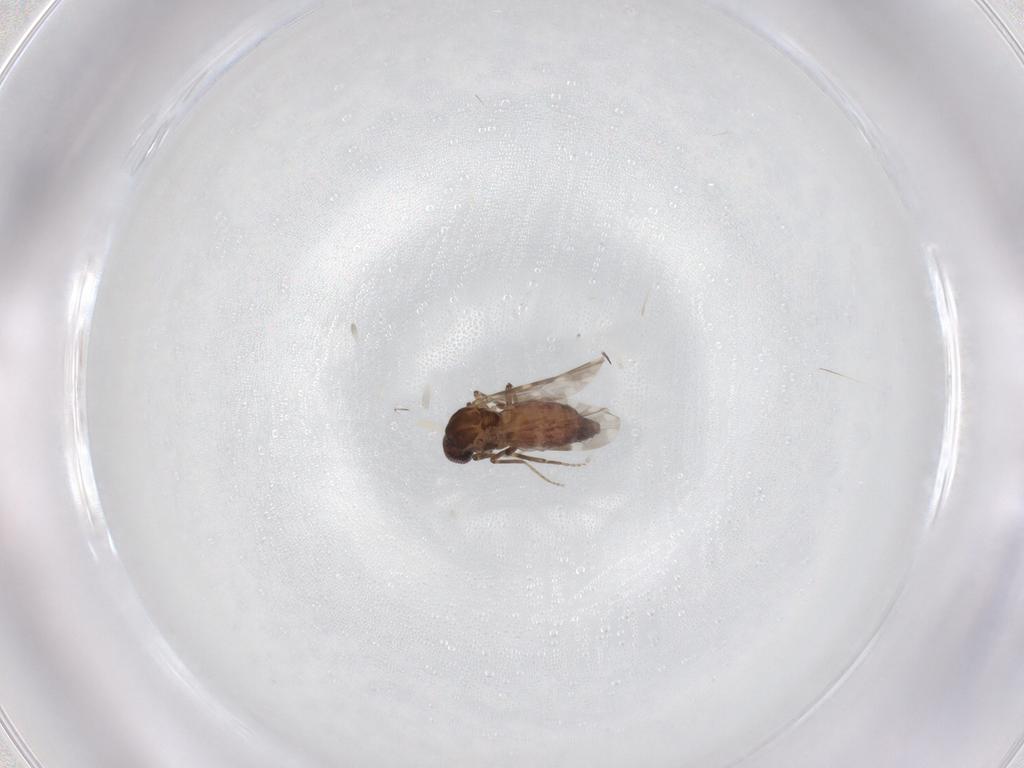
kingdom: Animalia
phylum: Arthropoda
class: Insecta
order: Diptera
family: Ceratopogonidae
